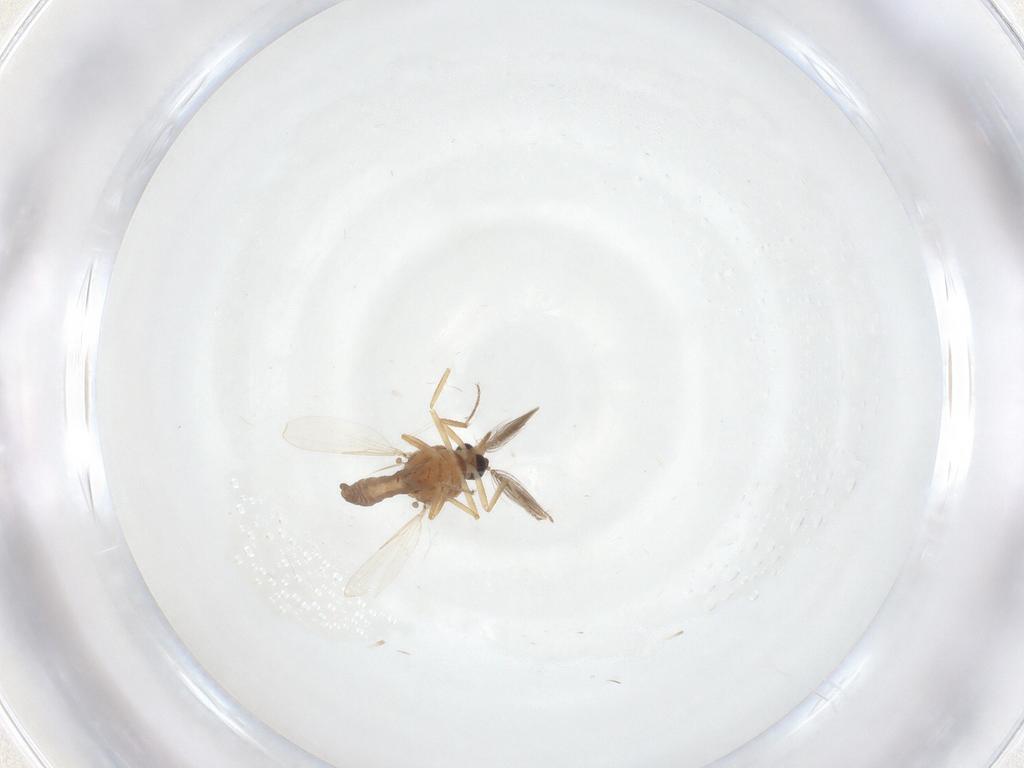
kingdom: Animalia
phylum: Arthropoda
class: Insecta
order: Diptera
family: Ceratopogonidae
